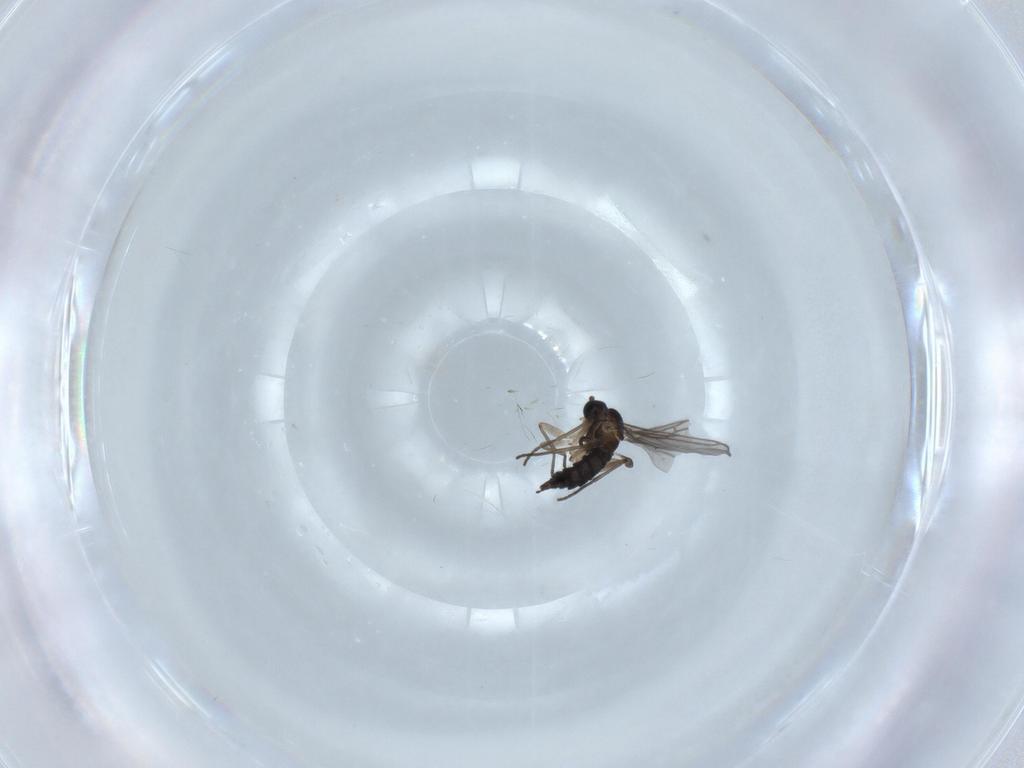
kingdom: Animalia
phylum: Arthropoda
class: Insecta
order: Diptera
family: Sciaridae
